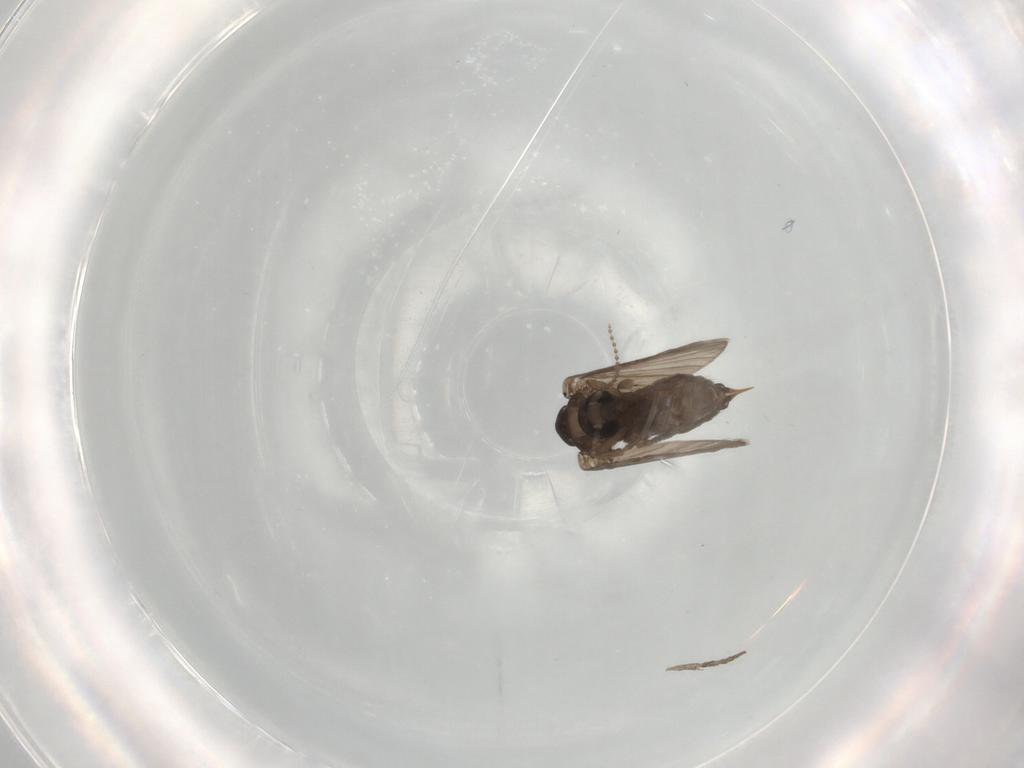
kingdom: Animalia
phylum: Arthropoda
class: Insecta
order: Diptera
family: Psychodidae
